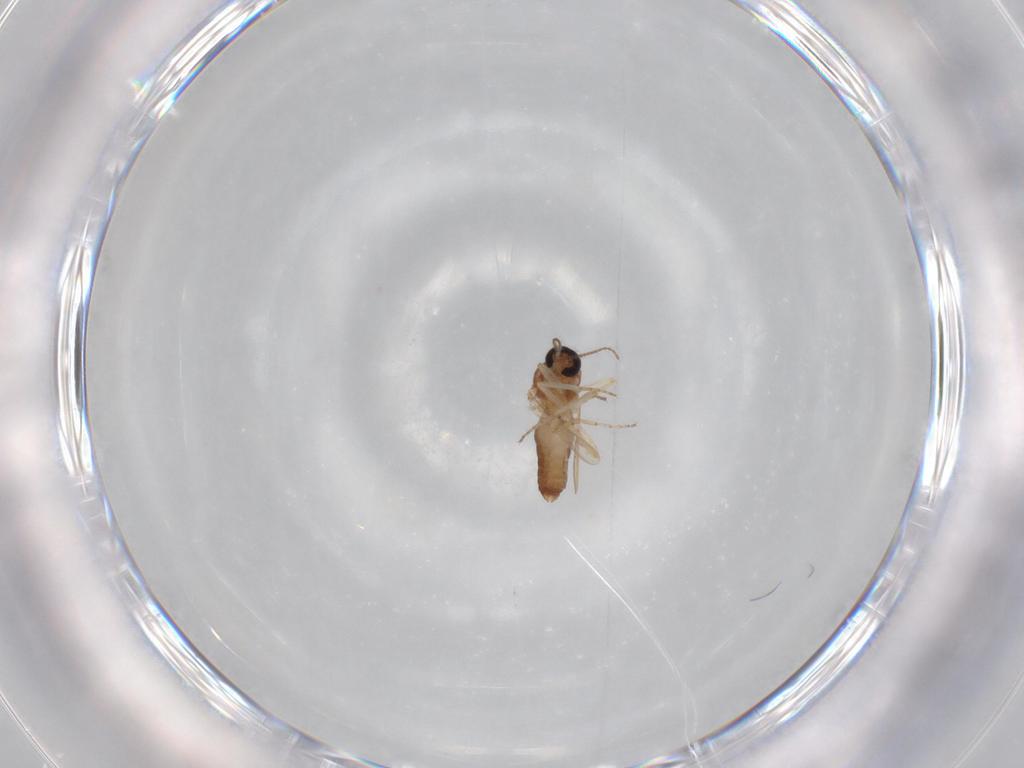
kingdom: Animalia
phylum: Arthropoda
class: Insecta
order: Diptera
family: Ceratopogonidae
